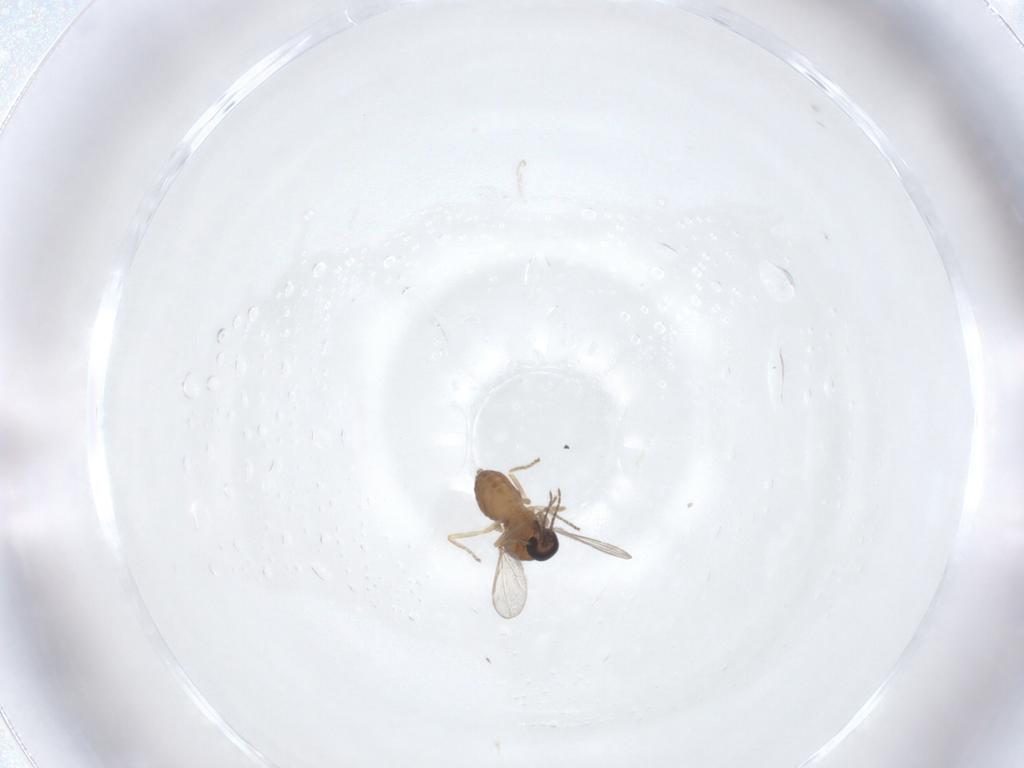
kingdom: Animalia
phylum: Arthropoda
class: Insecta
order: Diptera
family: Ceratopogonidae
